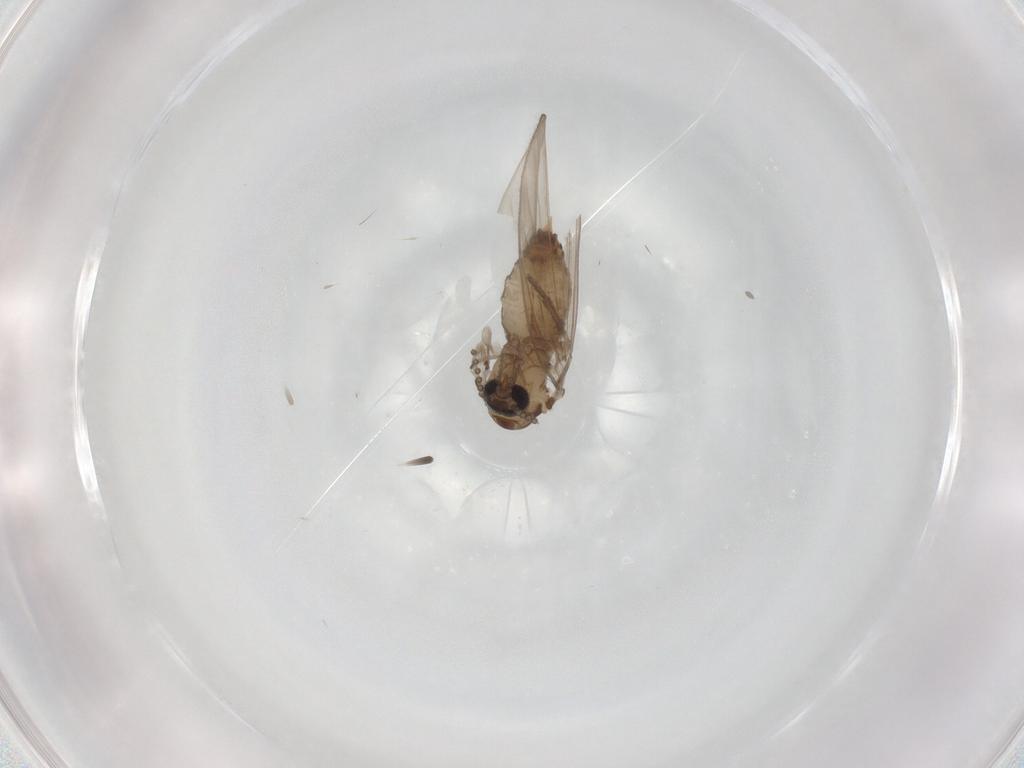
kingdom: Animalia
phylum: Arthropoda
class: Insecta
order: Diptera
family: Psychodidae
